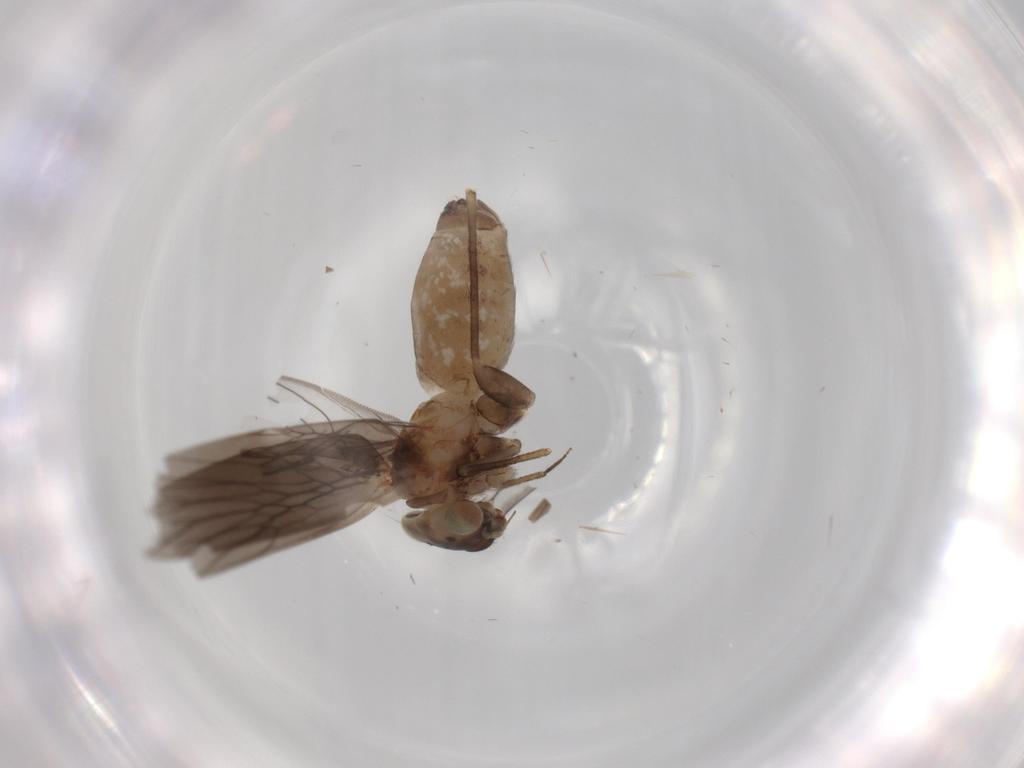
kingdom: Animalia
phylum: Arthropoda
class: Insecta
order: Psocodea
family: Lepidopsocidae
